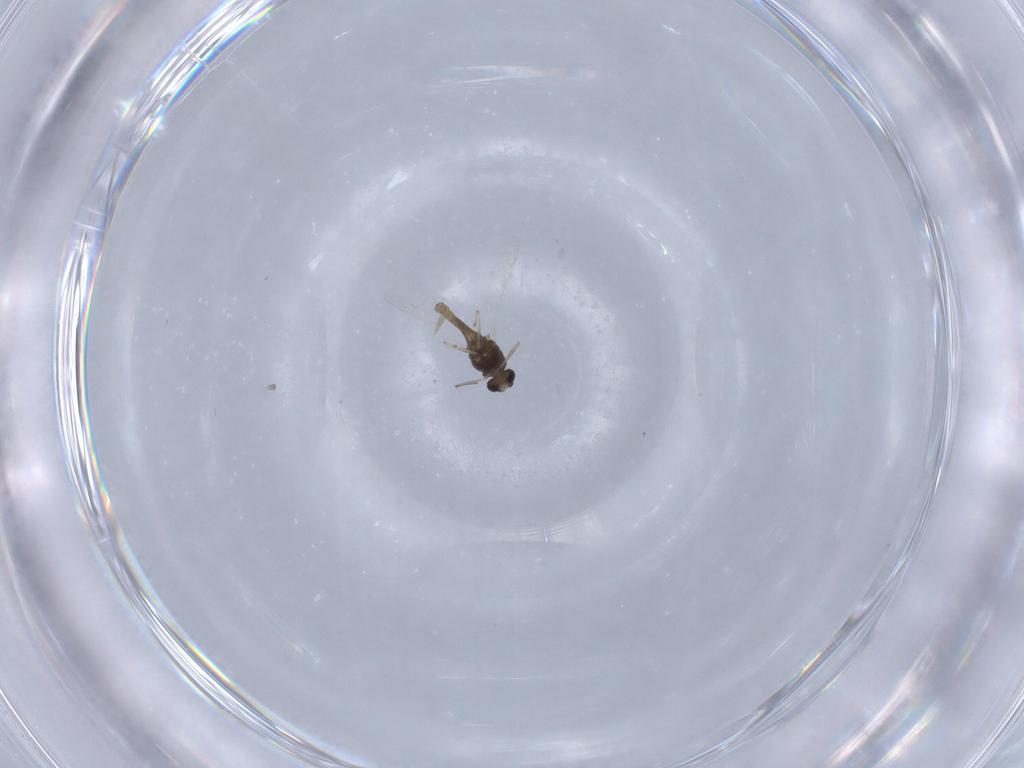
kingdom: Animalia
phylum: Arthropoda
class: Insecta
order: Diptera
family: Chironomidae
